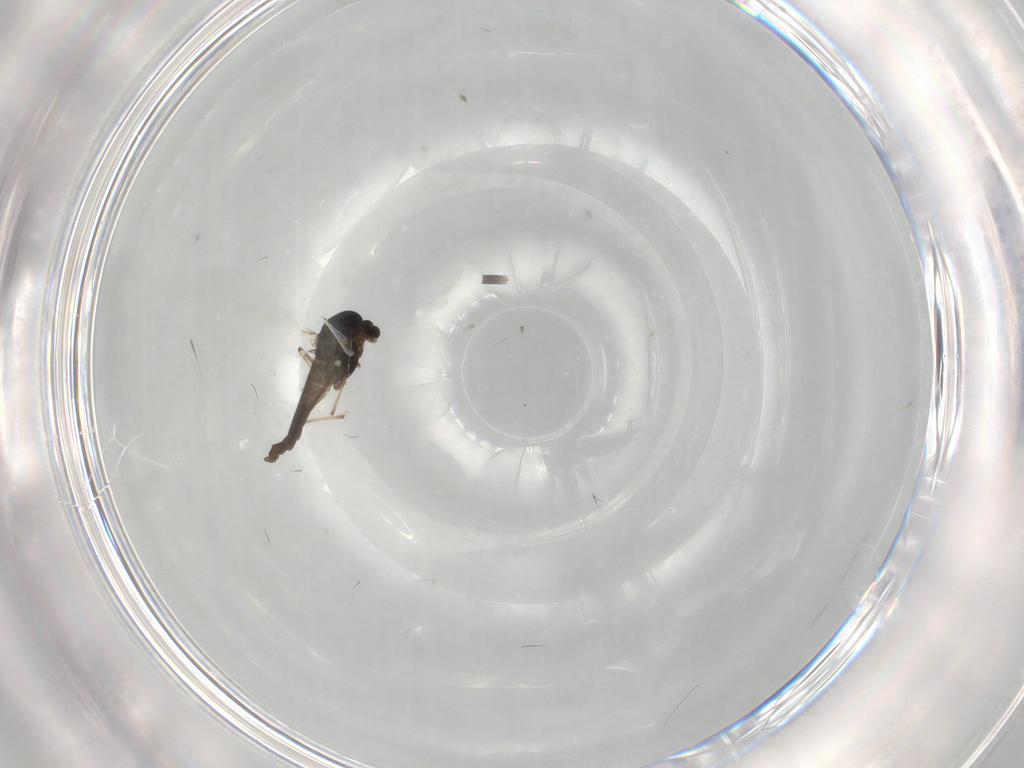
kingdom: Animalia
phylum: Arthropoda
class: Insecta
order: Diptera
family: Chironomidae
